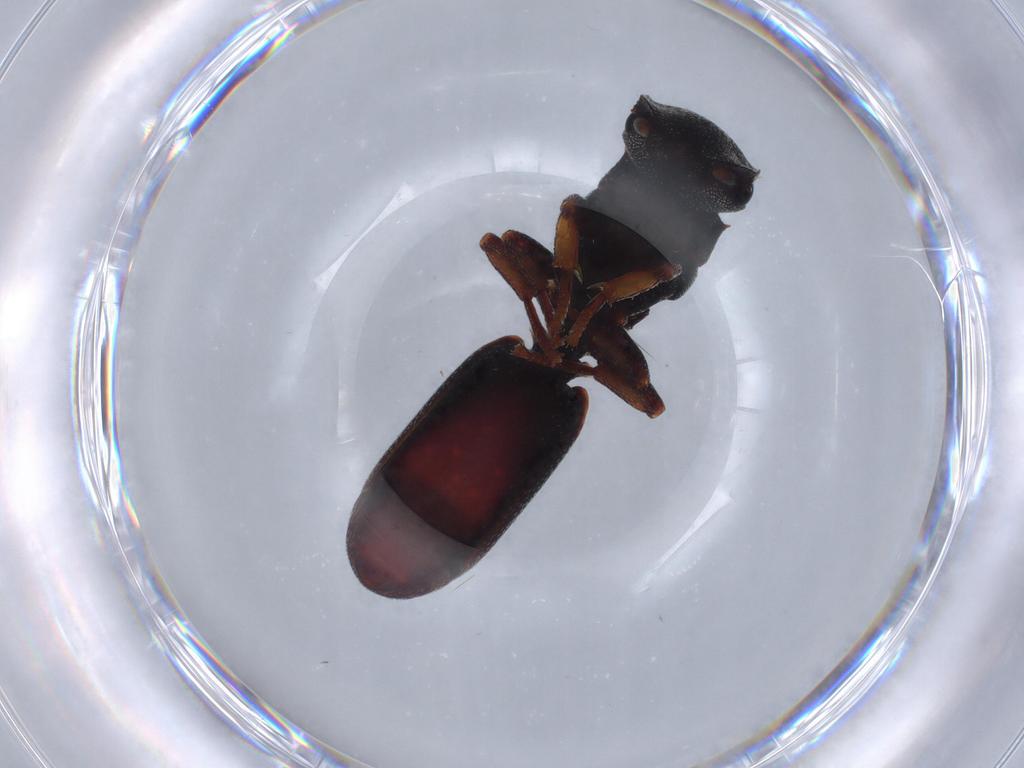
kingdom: Animalia
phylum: Arthropoda
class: Insecta
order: Hymenoptera
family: Formicidae
